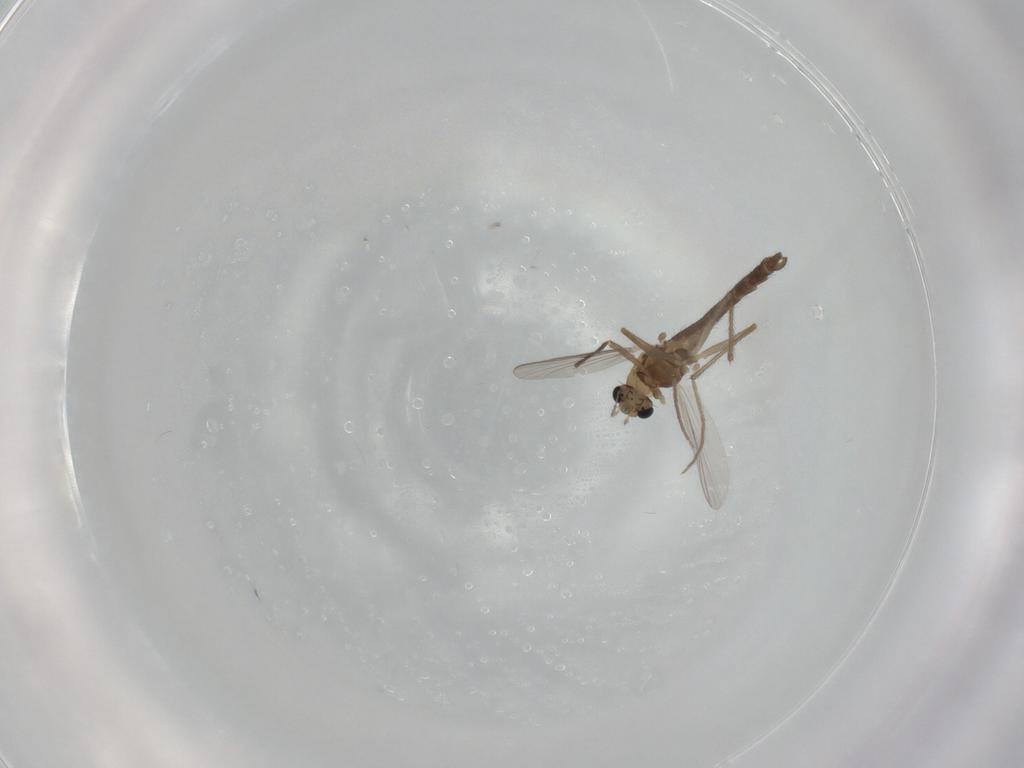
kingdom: Animalia
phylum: Arthropoda
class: Insecta
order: Diptera
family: Chironomidae
